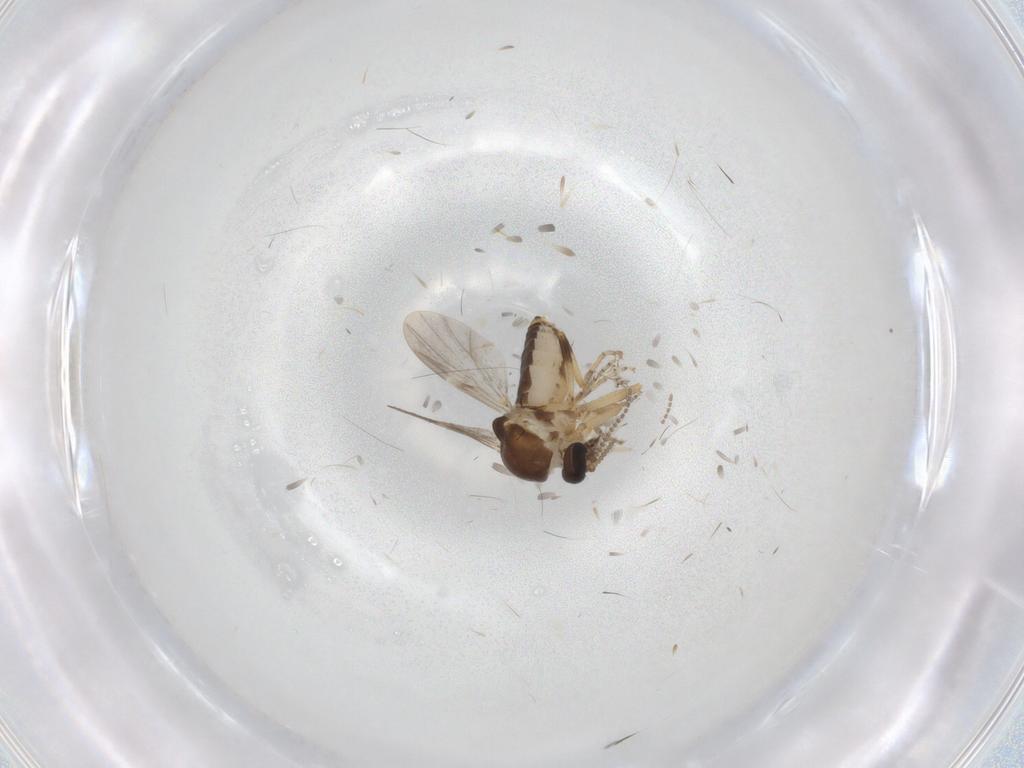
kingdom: Animalia
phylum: Arthropoda
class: Insecta
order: Diptera
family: Ceratopogonidae
